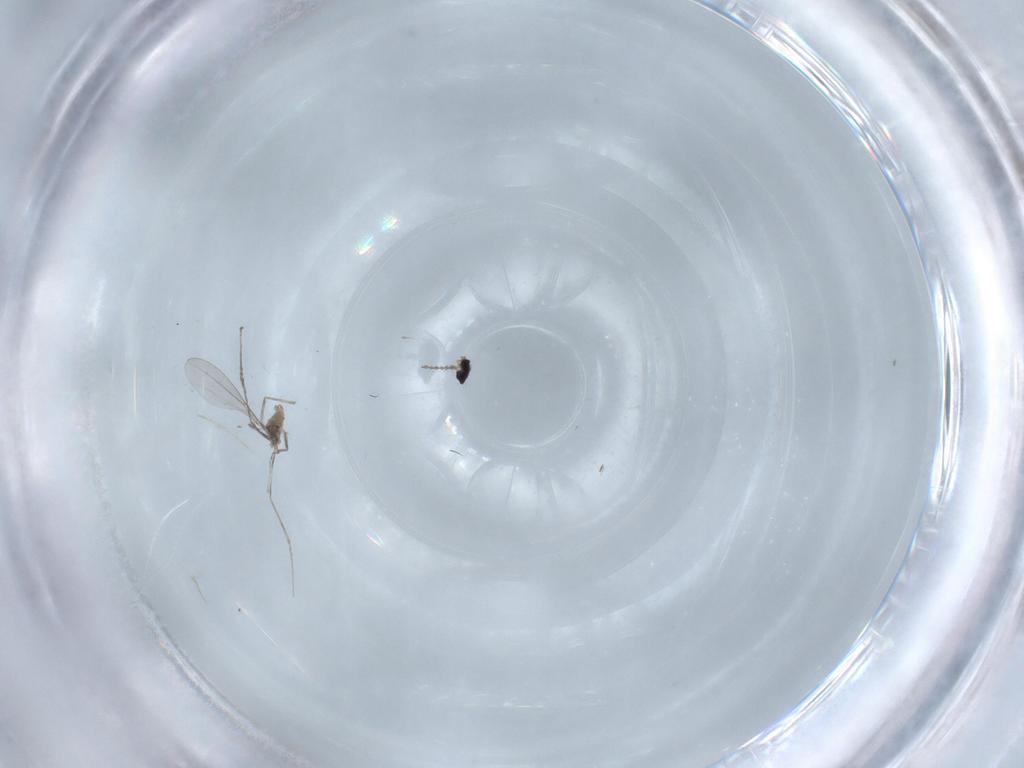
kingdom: Animalia
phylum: Arthropoda
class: Insecta
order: Diptera
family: Cecidomyiidae
